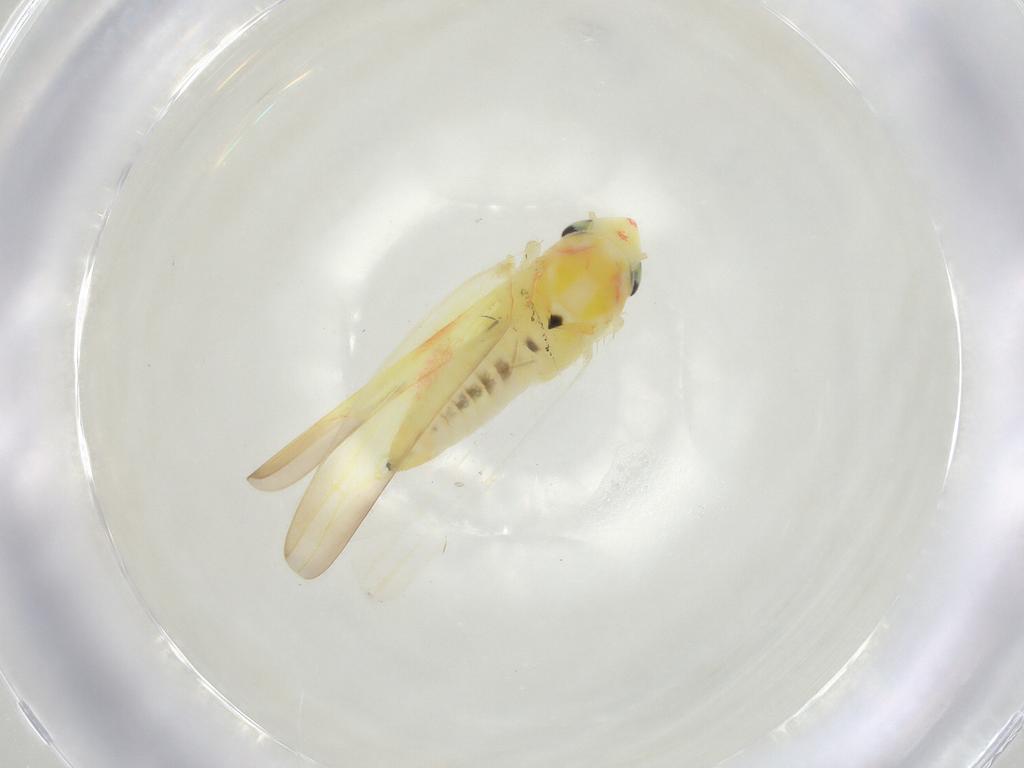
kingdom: Animalia
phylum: Arthropoda
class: Insecta
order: Hemiptera
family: Cicadellidae
